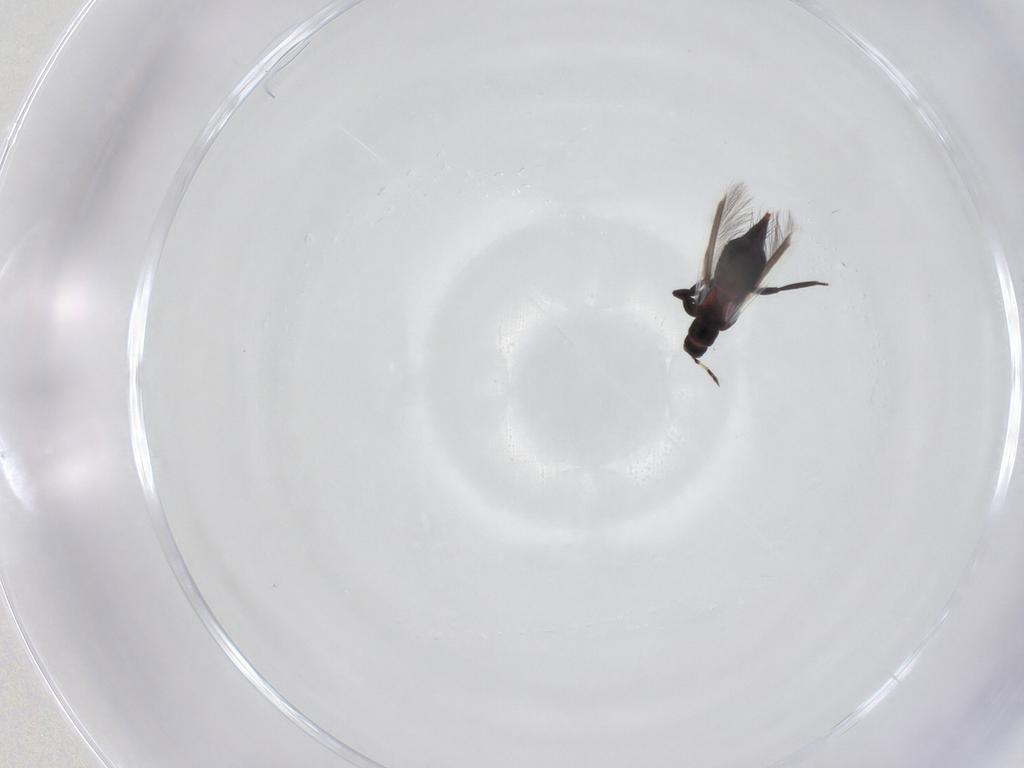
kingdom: Animalia
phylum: Arthropoda
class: Insecta
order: Thysanoptera
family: Aeolothripidae
